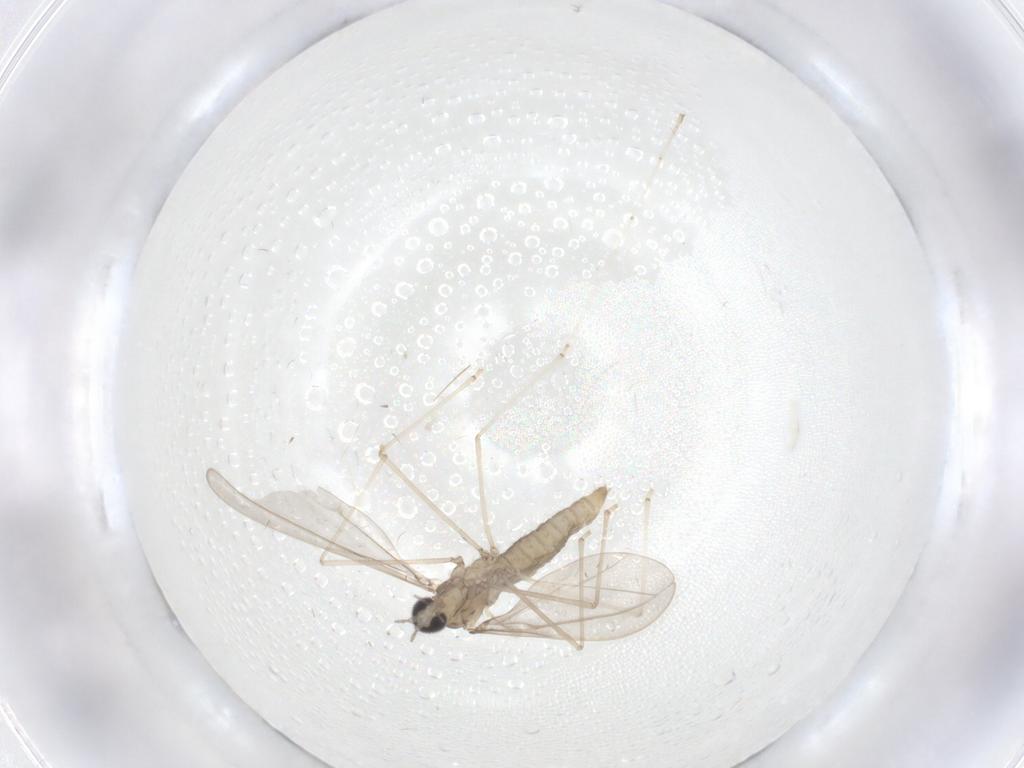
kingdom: Animalia
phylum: Arthropoda
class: Insecta
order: Diptera
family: Cecidomyiidae
